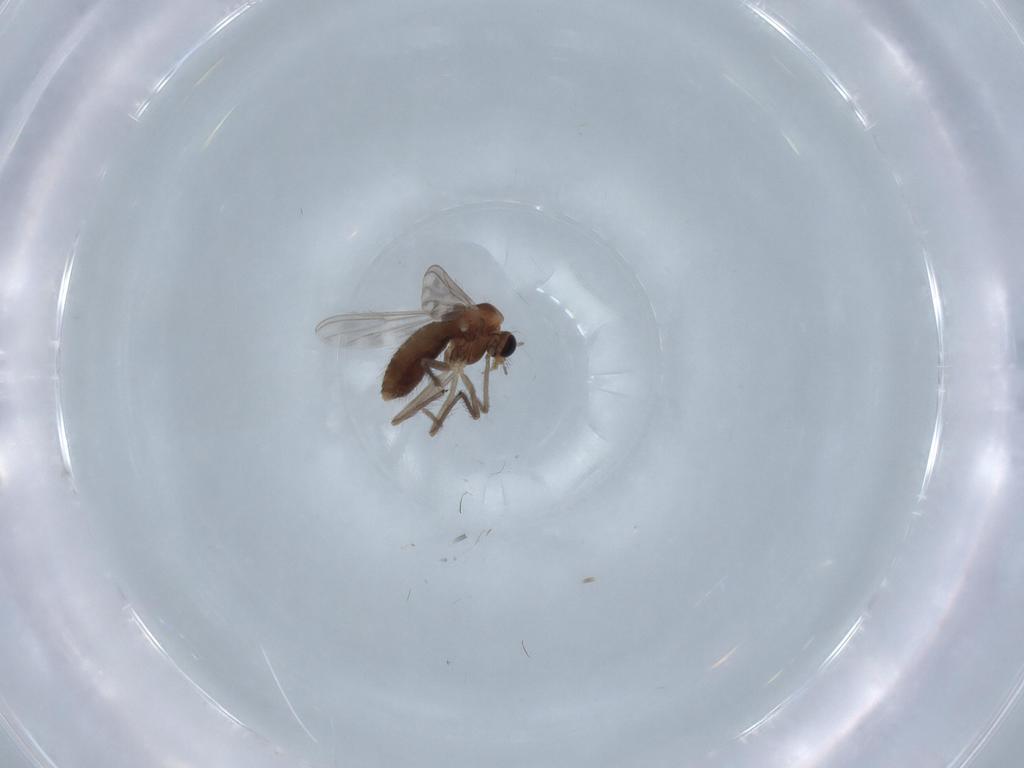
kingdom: Animalia
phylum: Arthropoda
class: Insecta
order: Diptera
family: Chironomidae
